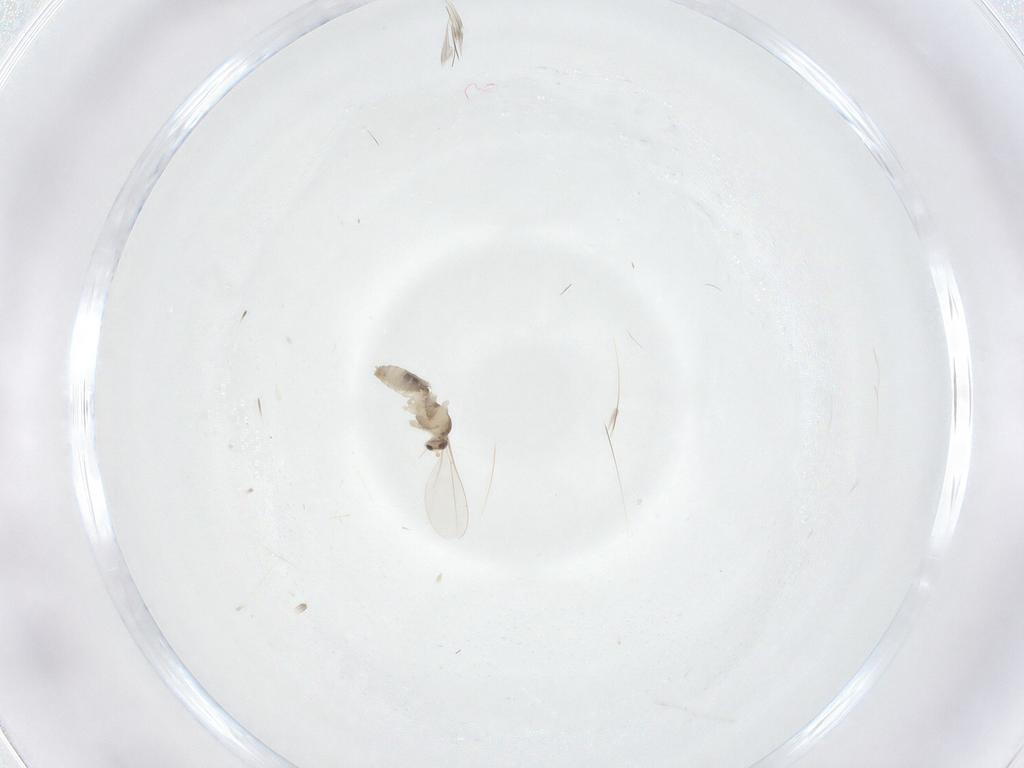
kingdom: Animalia
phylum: Arthropoda
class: Insecta
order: Diptera
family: Cecidomyiidae
